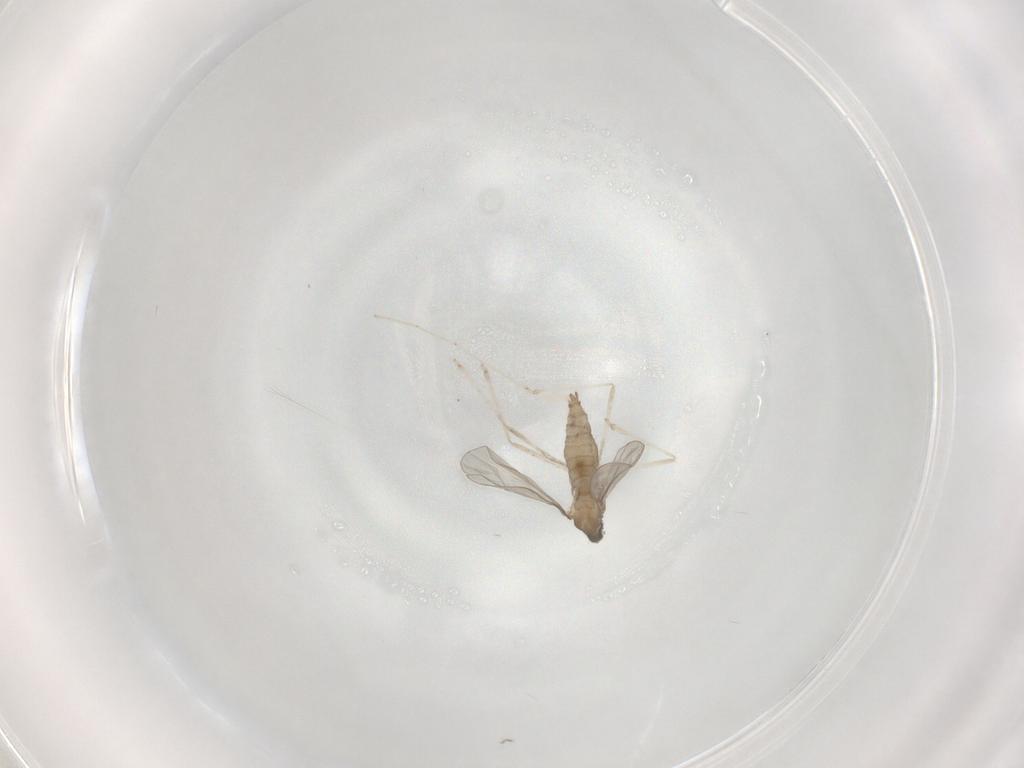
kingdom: Animalia
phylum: Arthropoda
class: Insecta
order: Diptera
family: Cecidomyiidae
